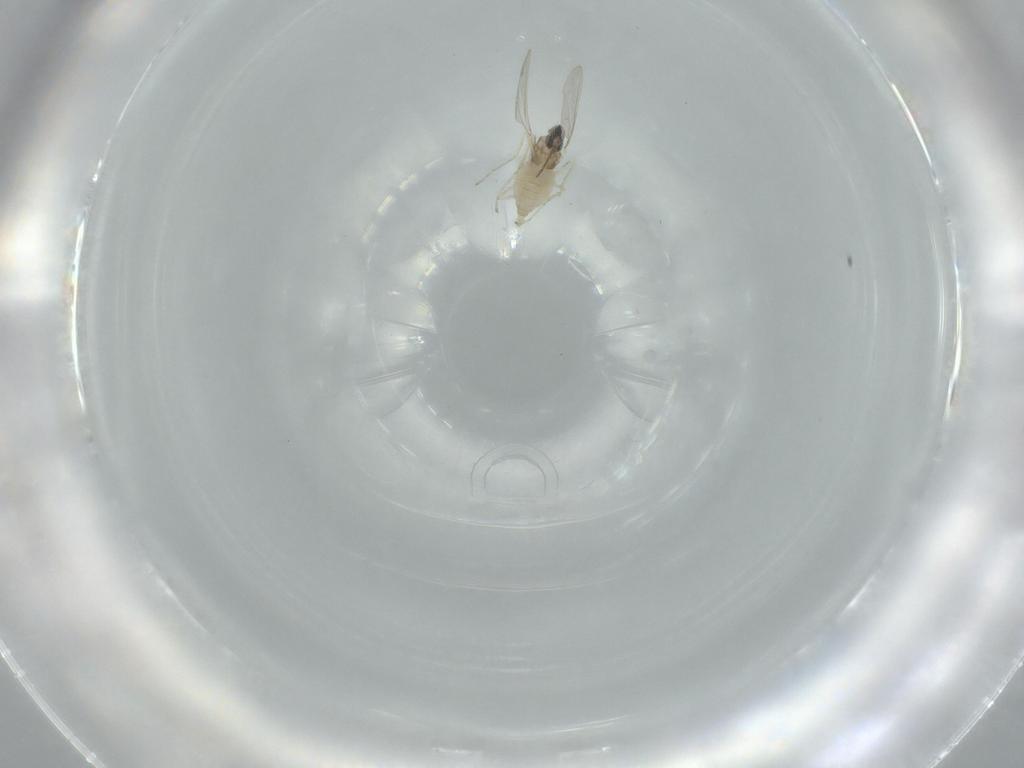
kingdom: Animalia
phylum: Arthropoda
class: Insecta
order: Diptera
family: Cecidomyiidae
